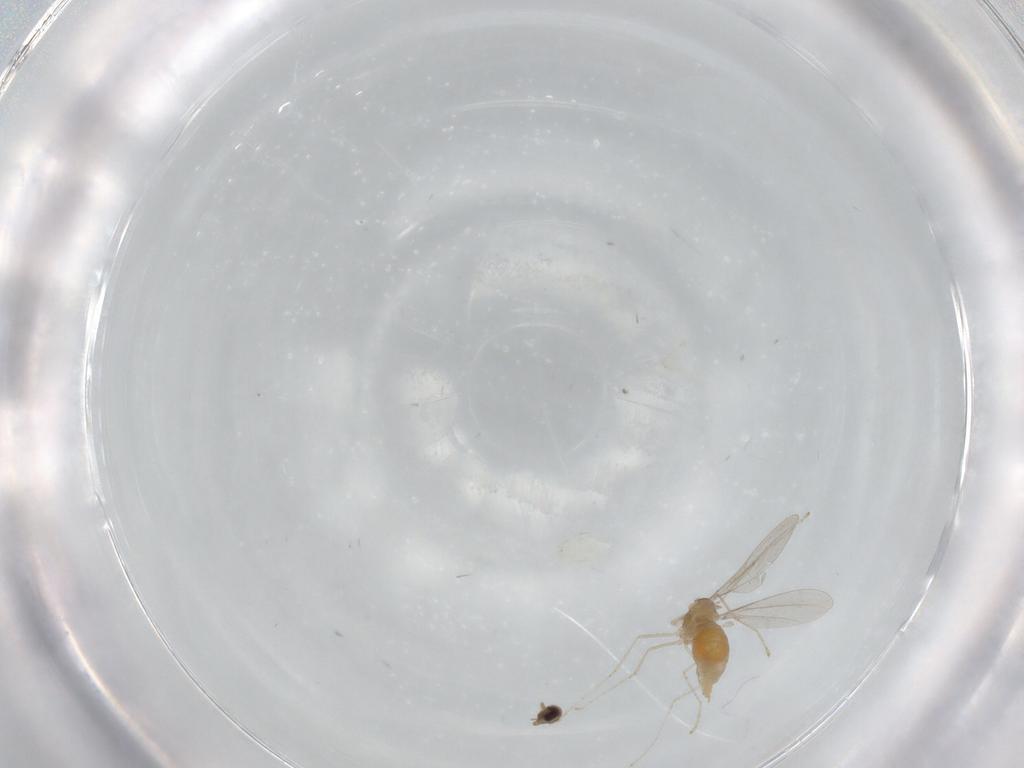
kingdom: Animalia
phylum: Arthropoda
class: Insecta
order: Diptera
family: Cecidomyiidae
